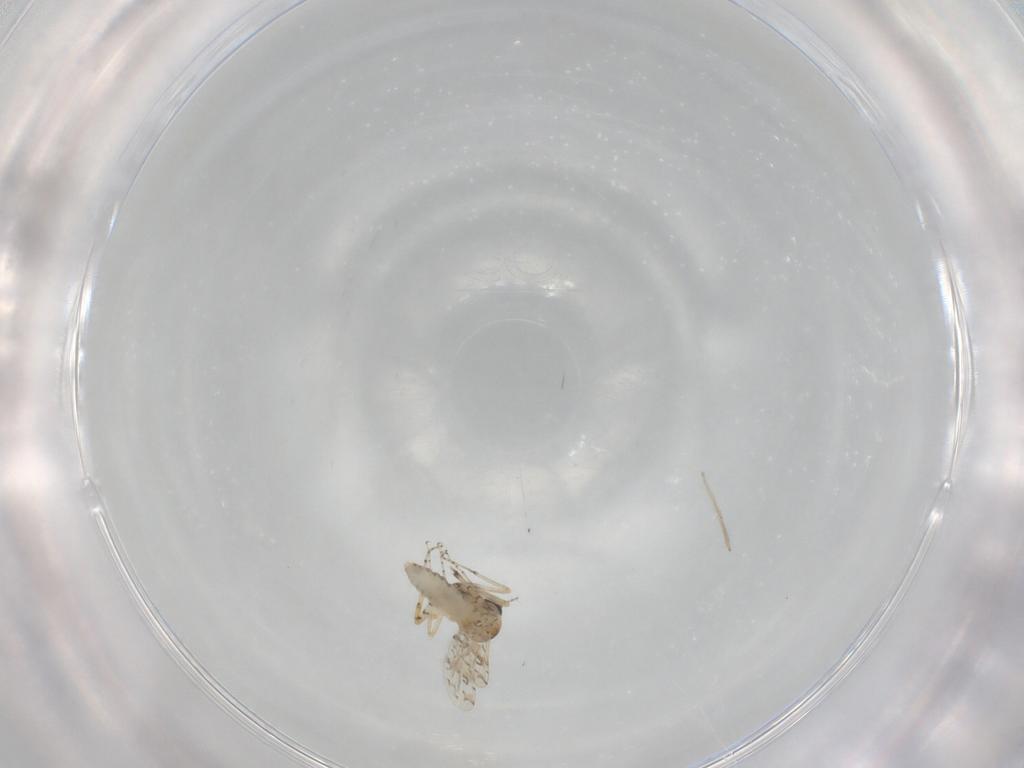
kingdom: Animalia
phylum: Arthropoda
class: Insecta
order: Diptera
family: Ceratopogonidae
